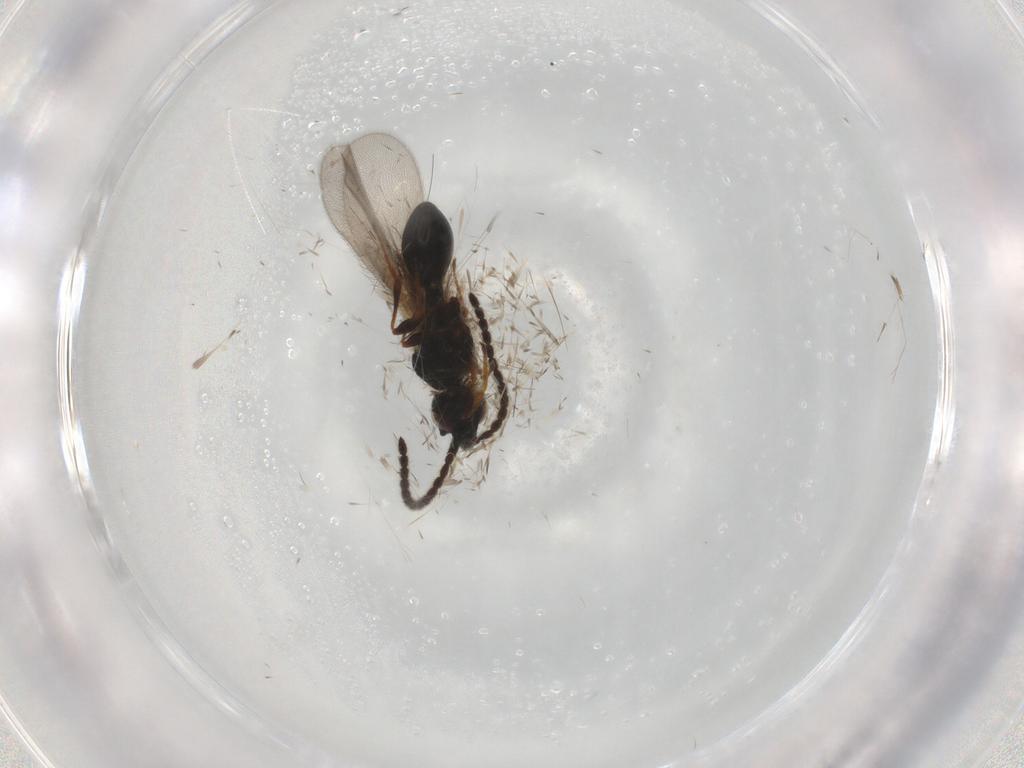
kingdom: Animalia
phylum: Arthropoda
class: Insecta
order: Hymenoptera
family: Diapriidae
